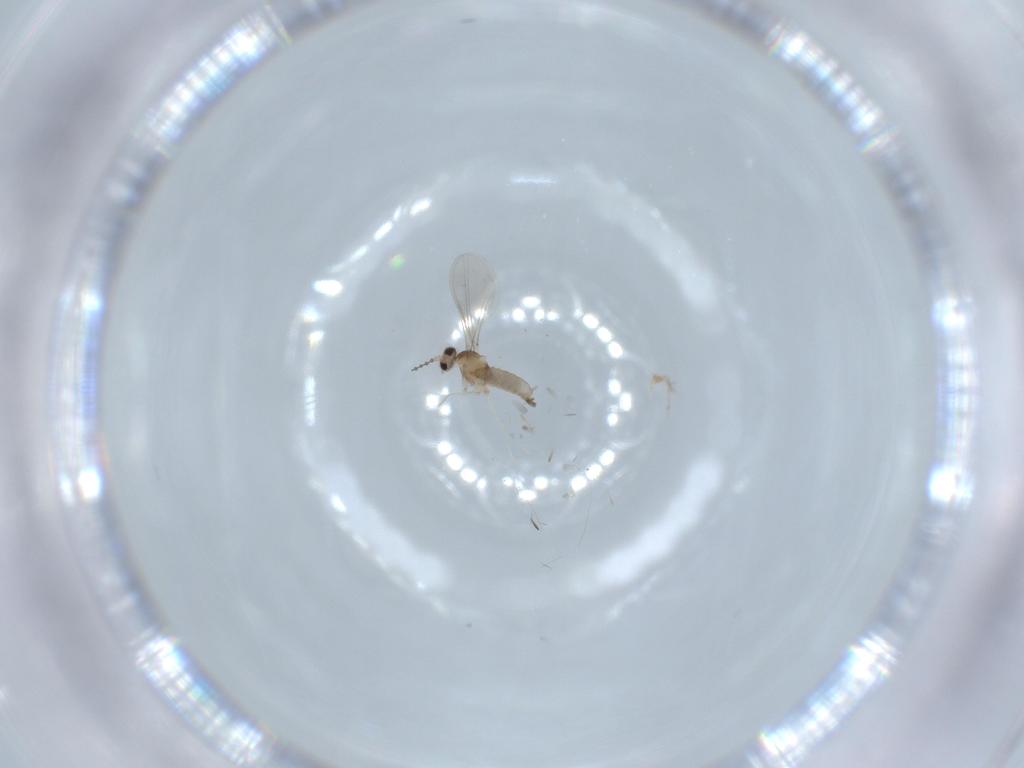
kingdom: Animalia
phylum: Arthropoda
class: Insecta
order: Diptera
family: Cecidomyiidae
